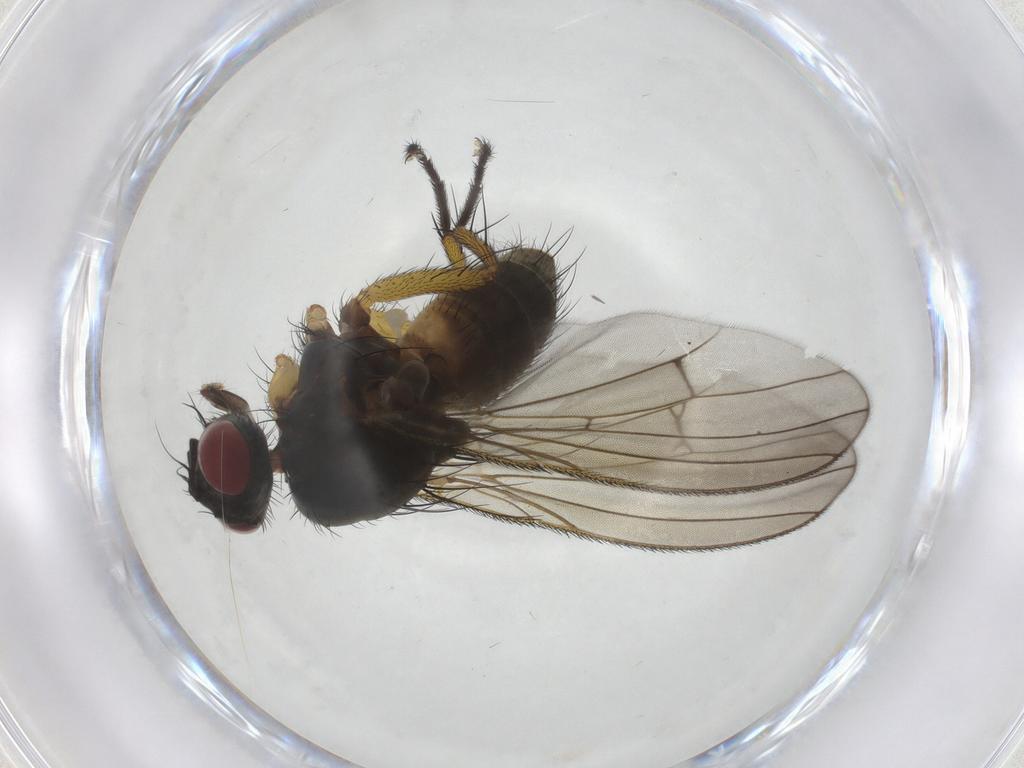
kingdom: Animalia
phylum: Arthropoda
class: Insecta
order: Diptera
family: Muscidae
